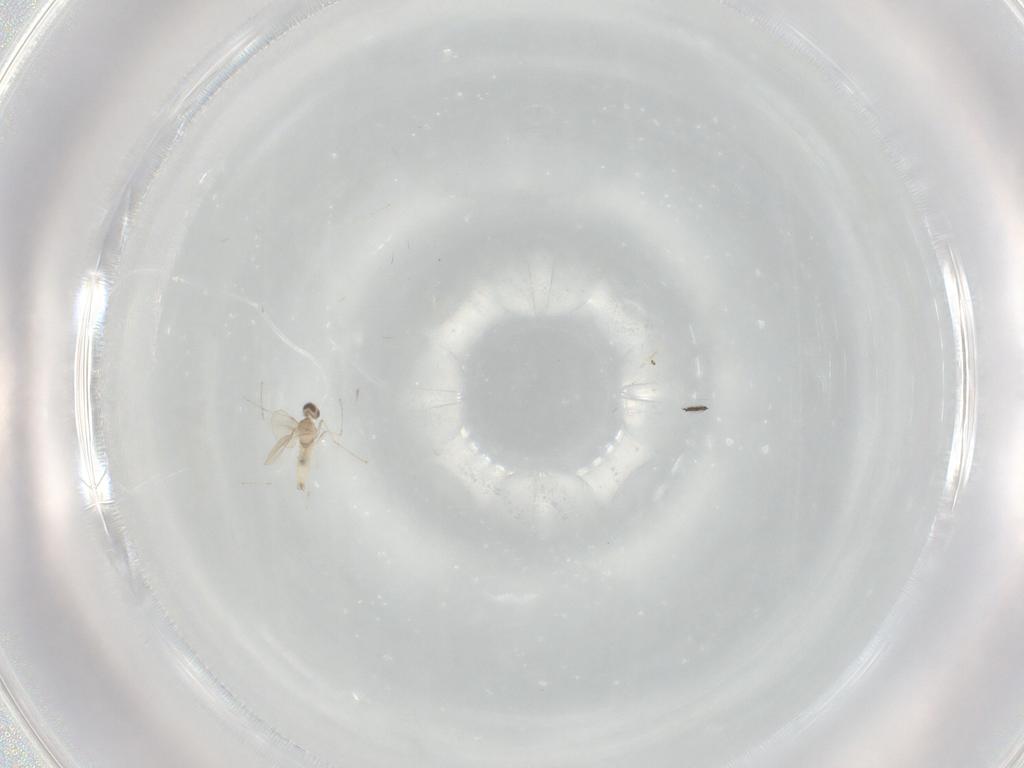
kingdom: Animalia
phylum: Arthropoda
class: Insecta
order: Diptera
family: Cecidomyiidae
